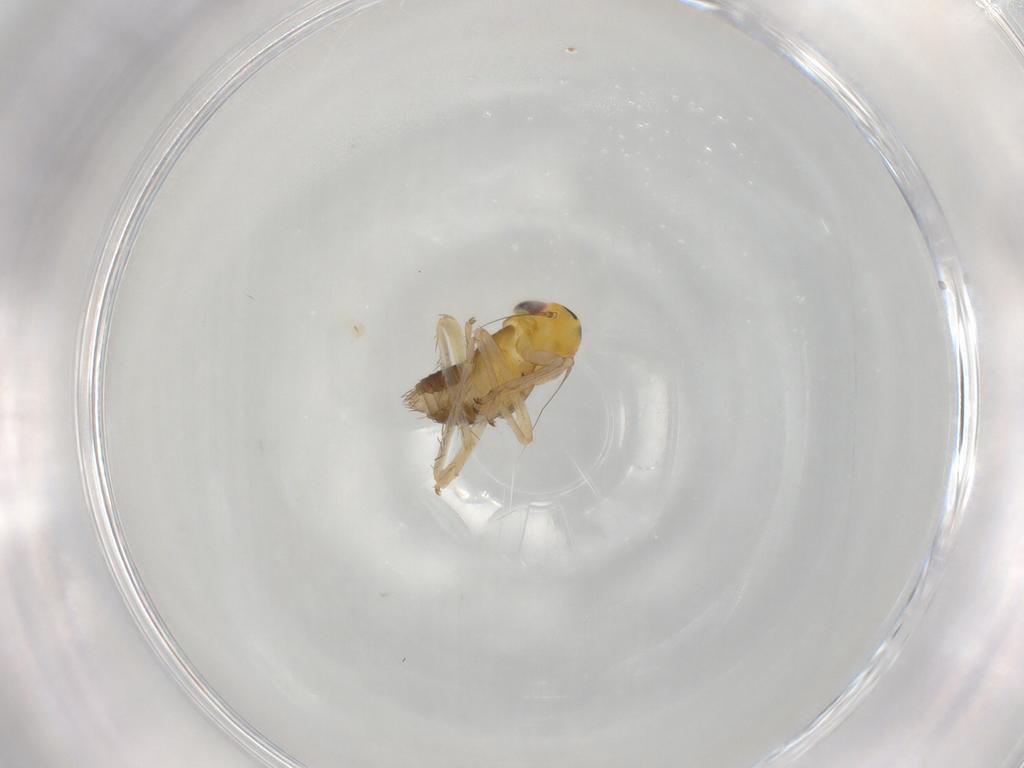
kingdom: Animalia
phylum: Arthropoda
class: Insecta
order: Hemiptera
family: Cicadellidae
